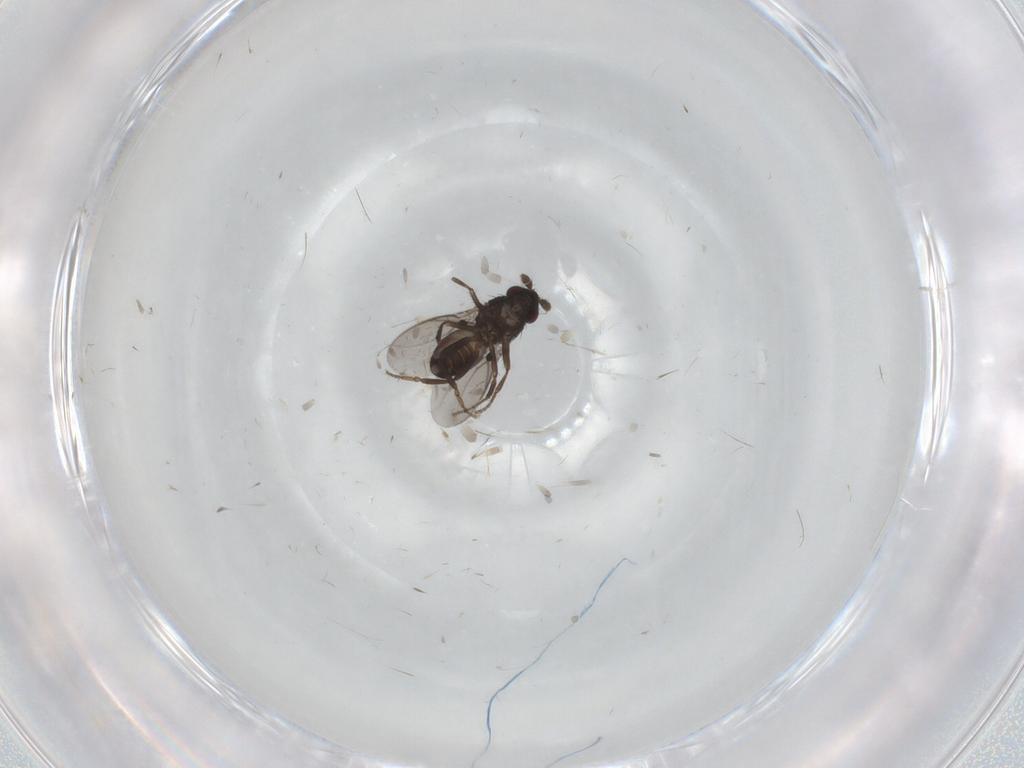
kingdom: Animalia
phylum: Arthropoda
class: Insecta
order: Diptera
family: Sphaeroceridae
